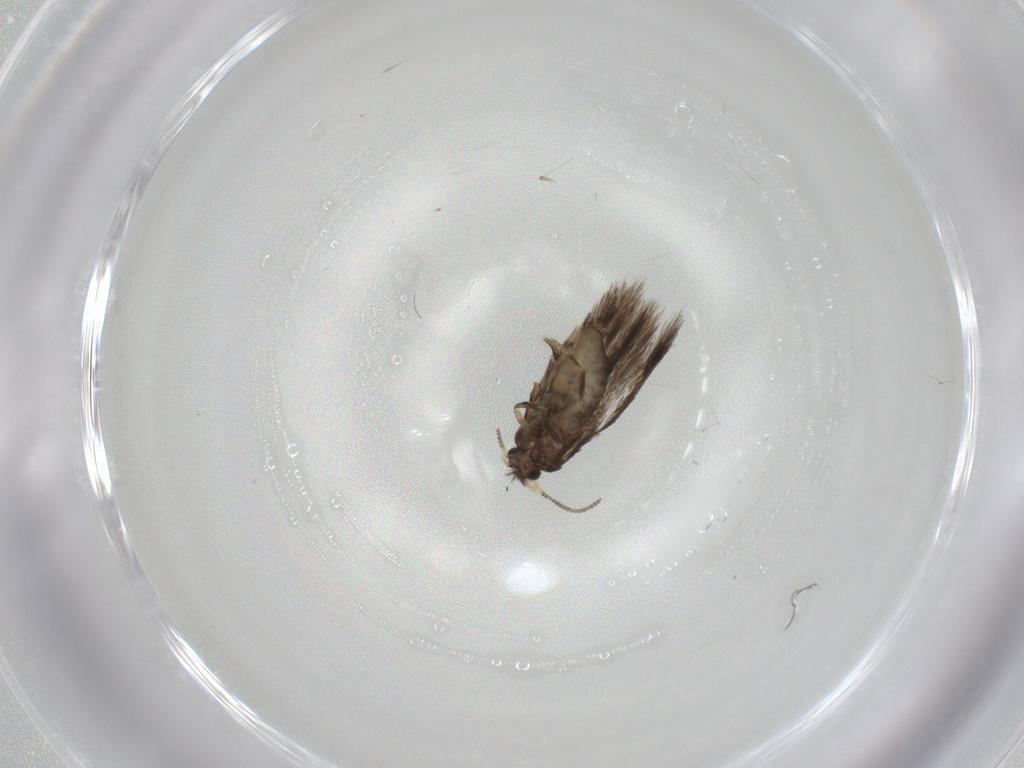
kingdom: Animalia
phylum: Arthropoda
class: Insecta
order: Lepidoptera
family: Nepticulidae
